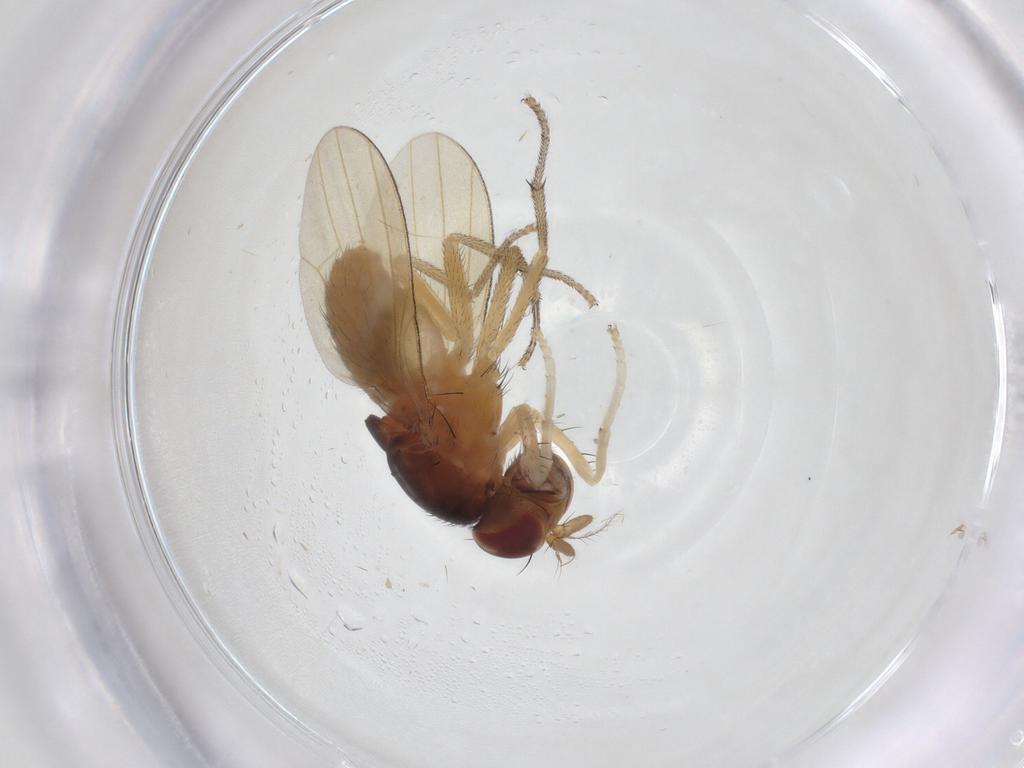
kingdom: Animalia
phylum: Arthropoda
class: Insecta
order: Diptera
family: Lauxaniidae
